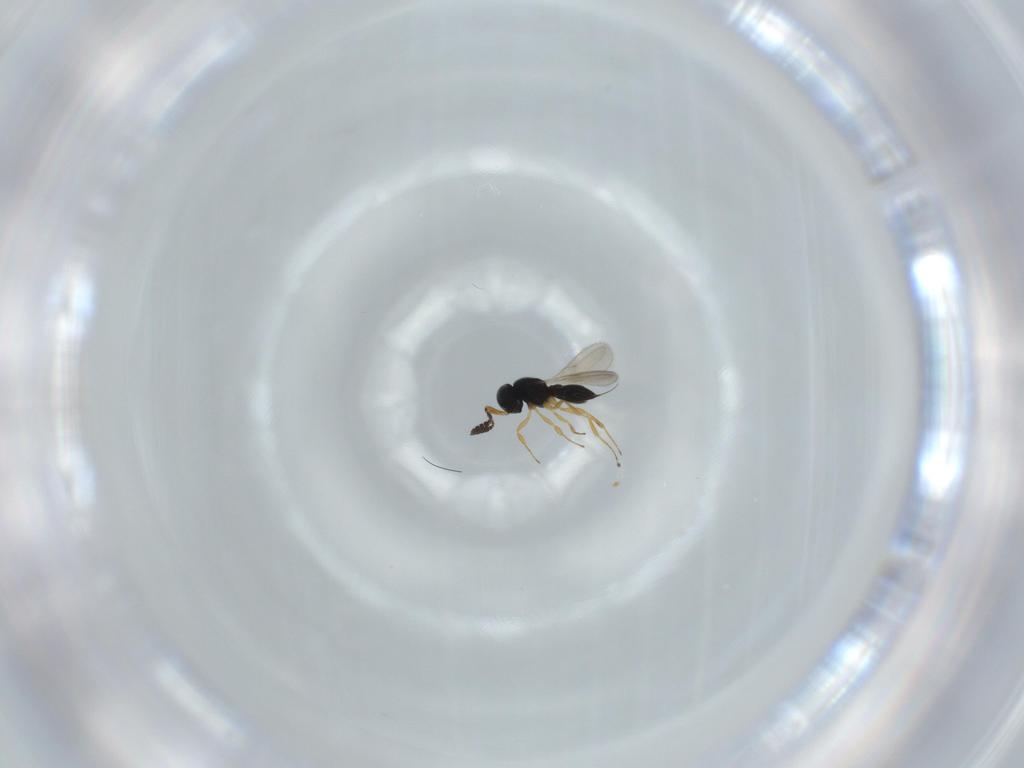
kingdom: Animalia
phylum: Arthropoda
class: Insecta
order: Hymenoptera
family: Scelionidae
